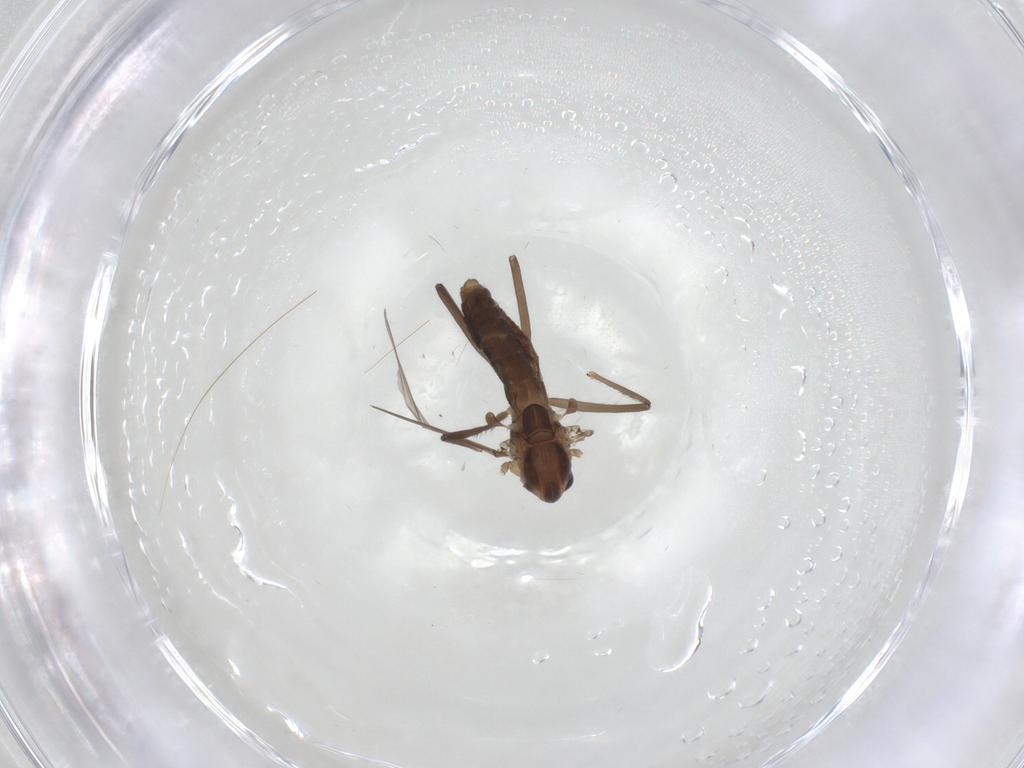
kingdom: Animalia
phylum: Arthropoda
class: Insecta
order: Diptera
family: Chironomidae
